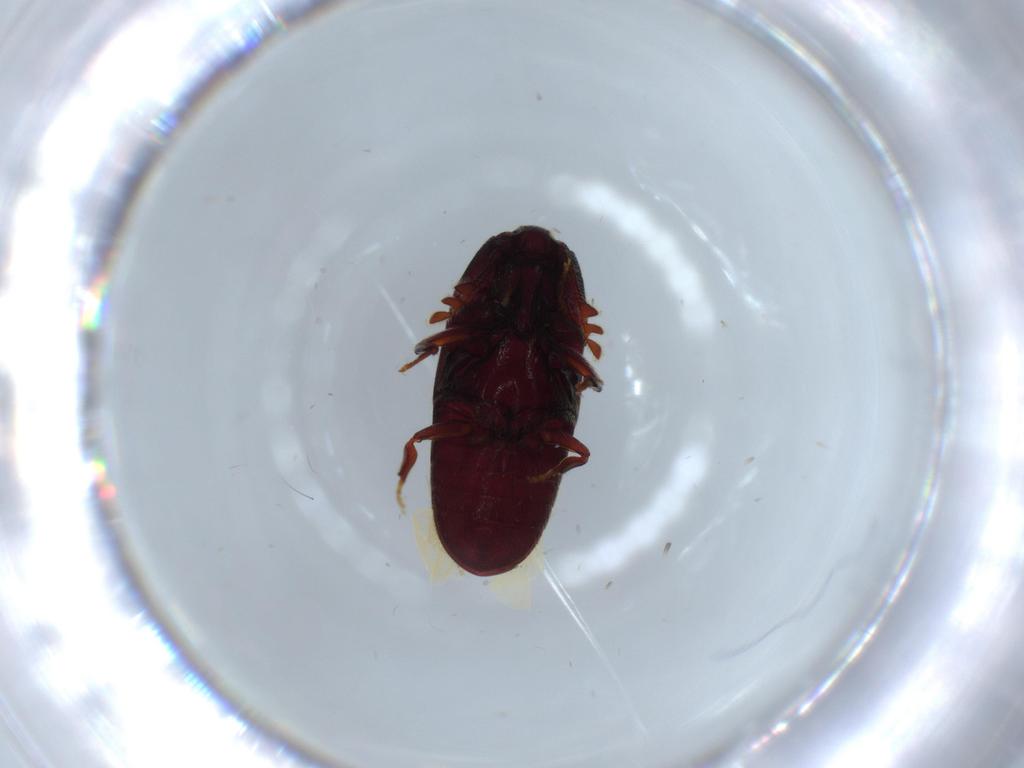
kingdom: Animalia
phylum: Arthropoda
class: Insecta
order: Coleoptera
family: Throscidae
